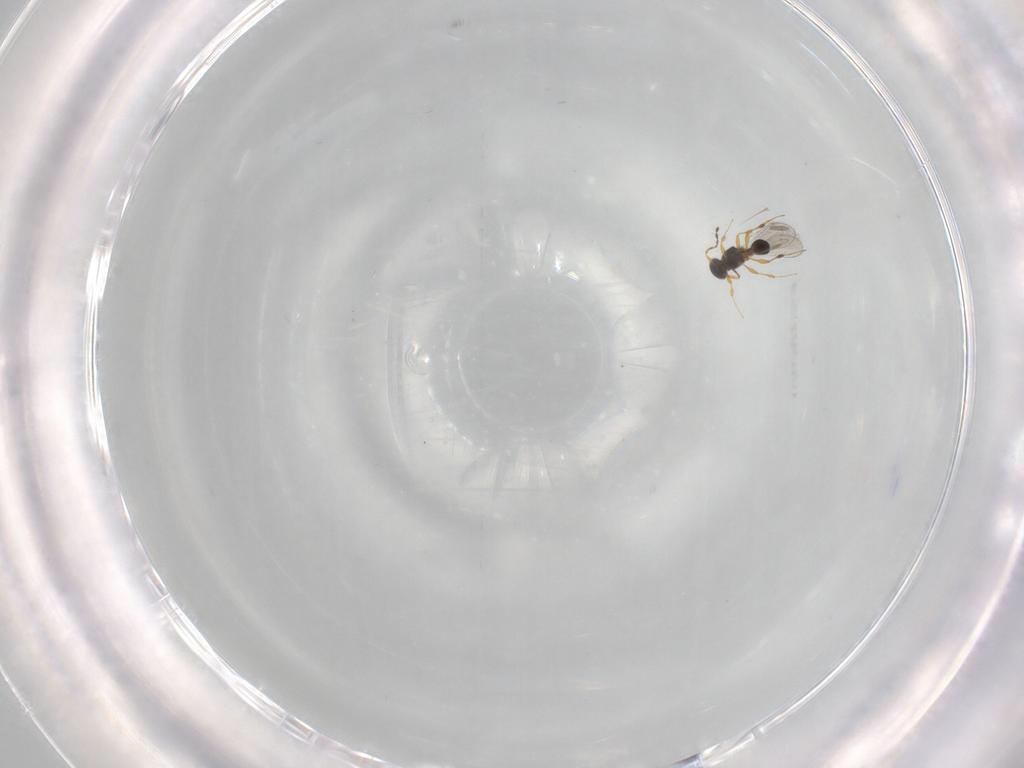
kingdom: Animalia
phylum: Arthropoda
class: Insecta
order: Hymenoptera
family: Platygastridae
